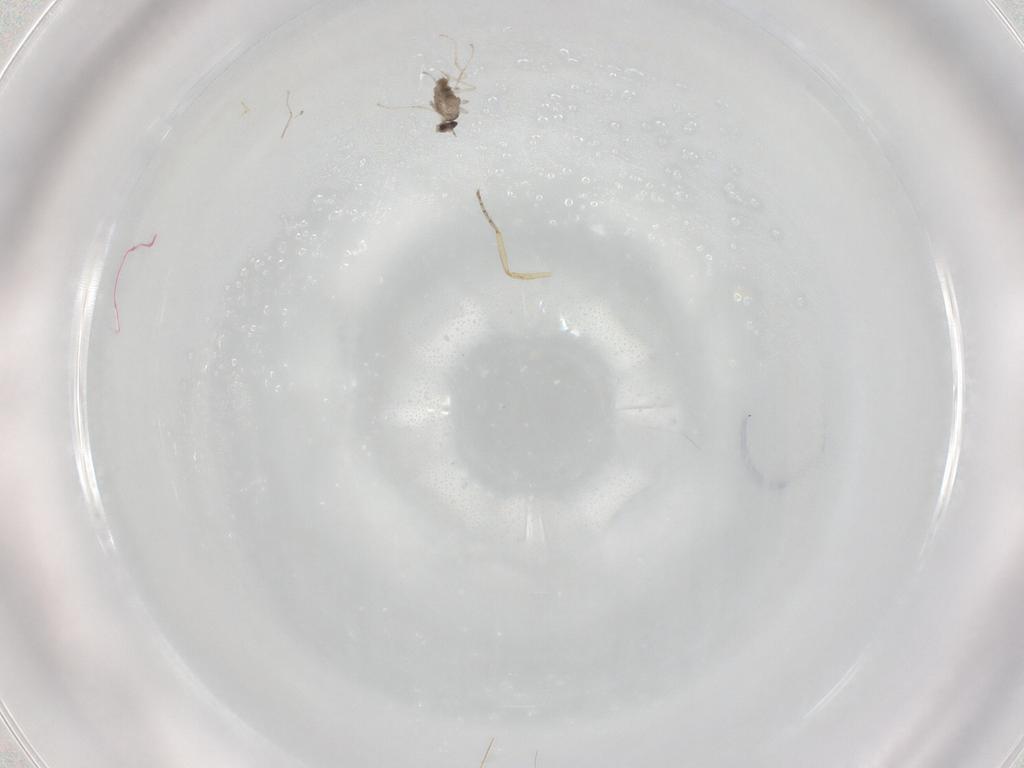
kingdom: Animalia
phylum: Arthropoda
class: Insecta
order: Diptera
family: Cecidomyiidae
